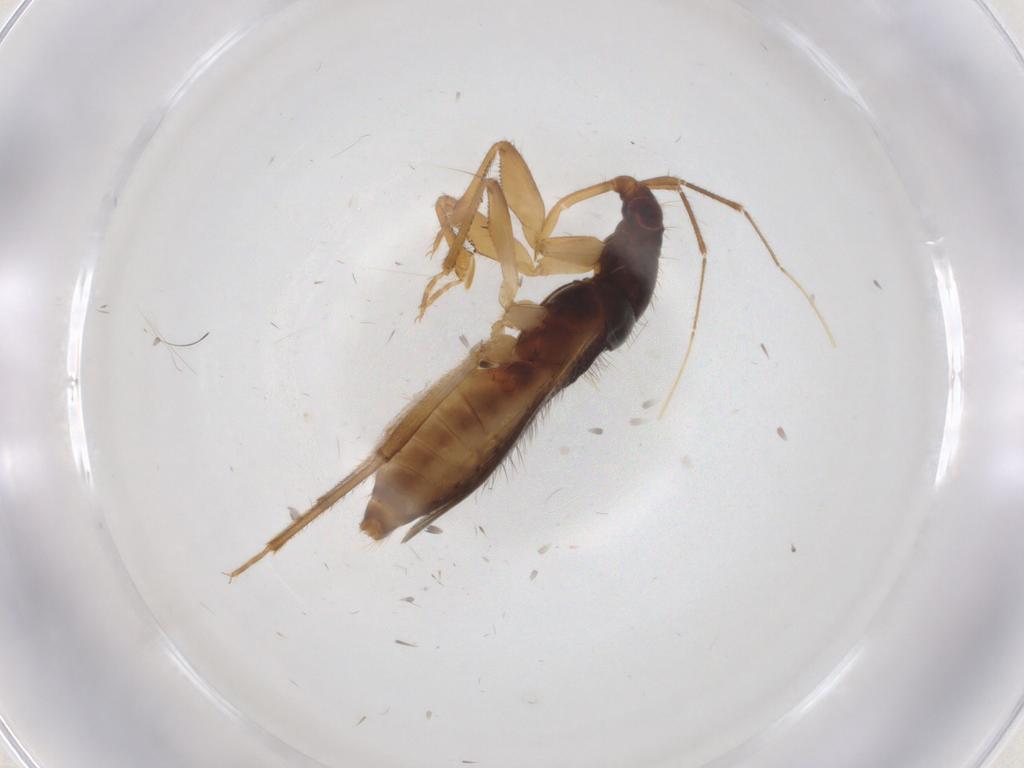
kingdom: Animalia
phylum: Arthropoda
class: Insecta
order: Hemiptera
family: Nabidae
